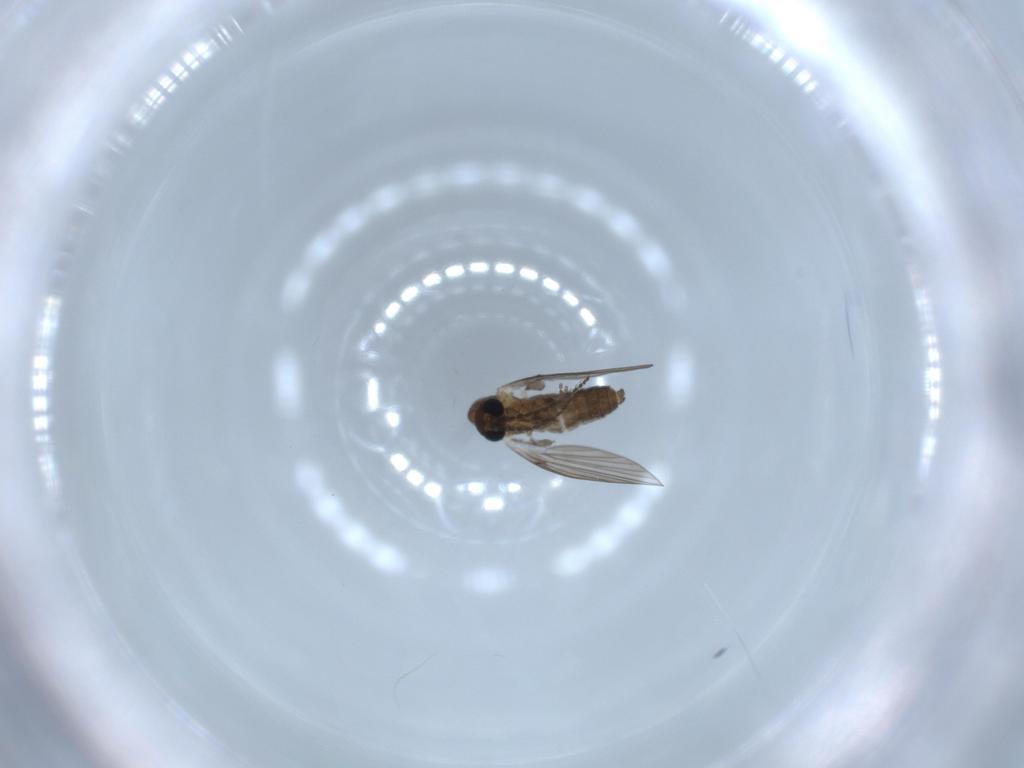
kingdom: Animalia
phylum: Arthropoda
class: Insecta
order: Diptera
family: Psychodidae
